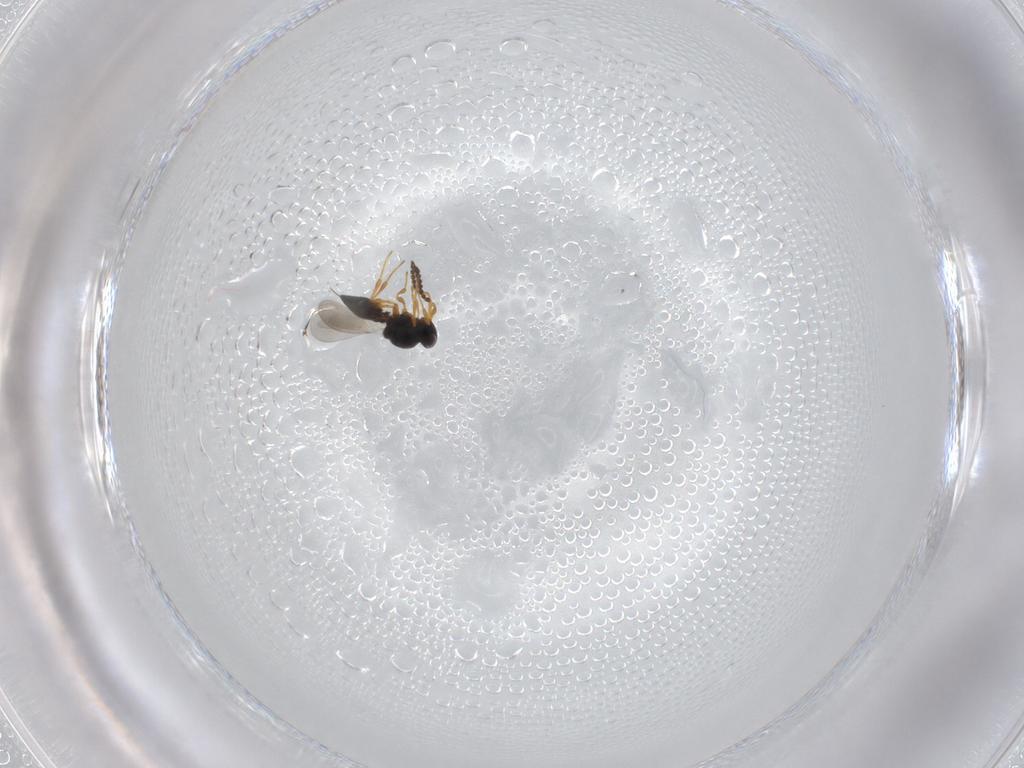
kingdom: Animalia
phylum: Arthropoda
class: Insecta
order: Hymenoptera
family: Platygastridae
